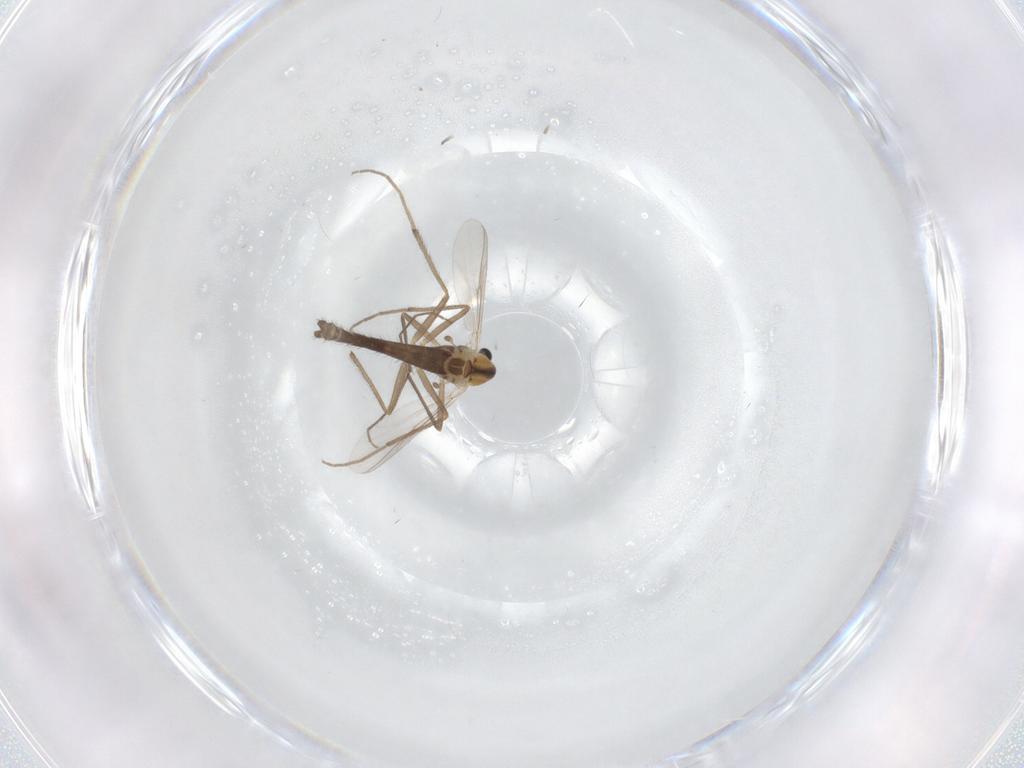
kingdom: Animalia
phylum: Arthropoda
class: Insecta
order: Diptera
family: Chironomidae
